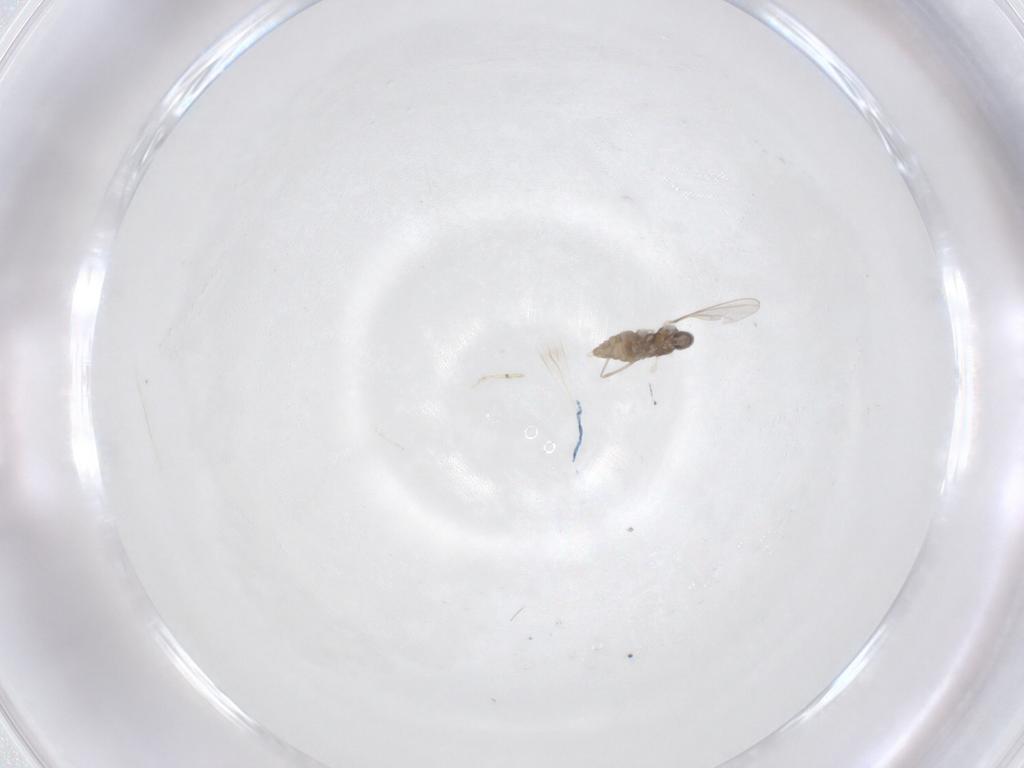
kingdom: Animalia
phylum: Arthropoda
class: Insecta
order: Diptera
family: Cecidomyiidae
